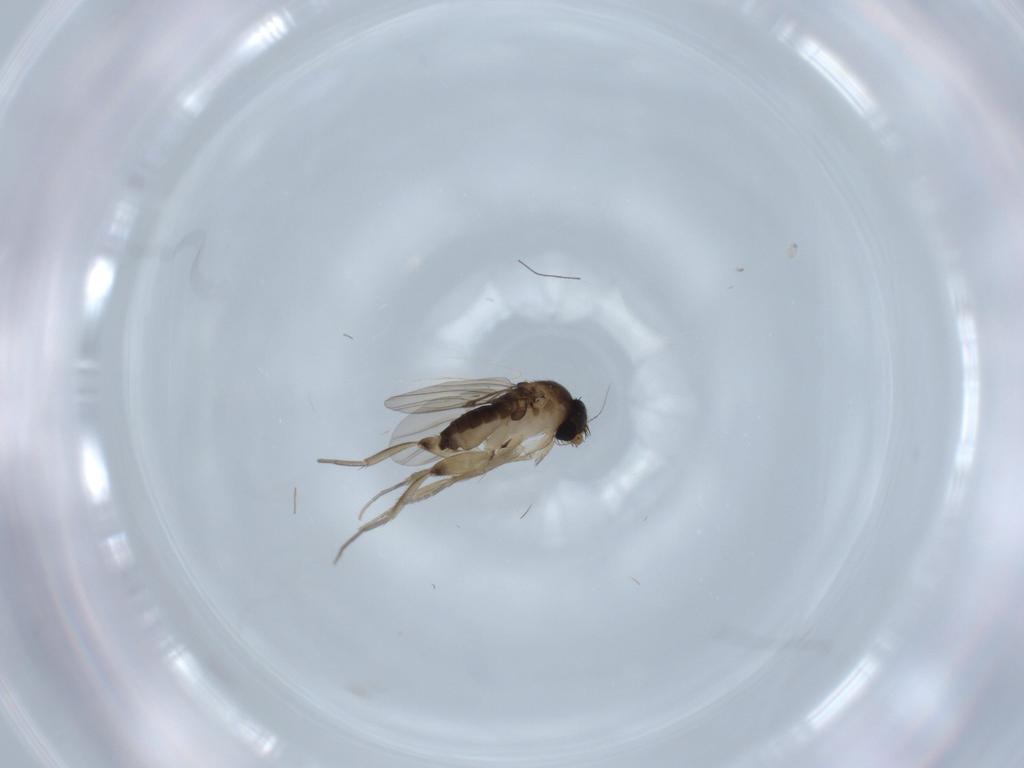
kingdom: Animalia
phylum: Arthropoda
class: Insecta
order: Diptera
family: Phoridae
